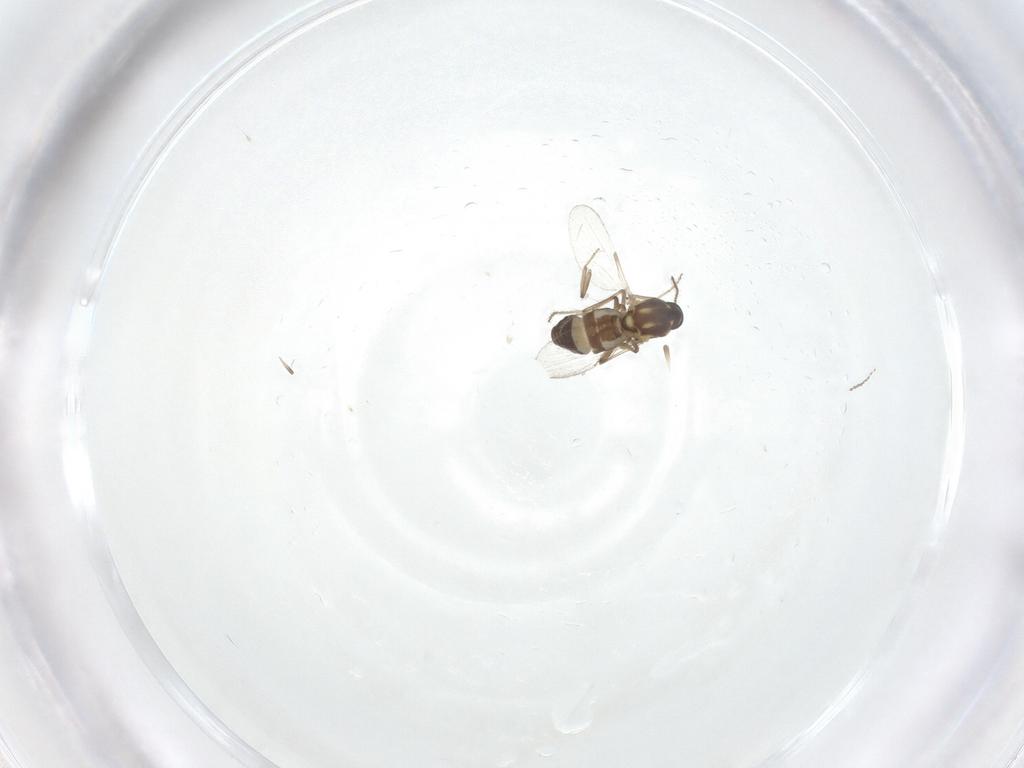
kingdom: Animalia
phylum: Arthropoda
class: Insecta
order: Diptera
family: Ceratopogonidae
